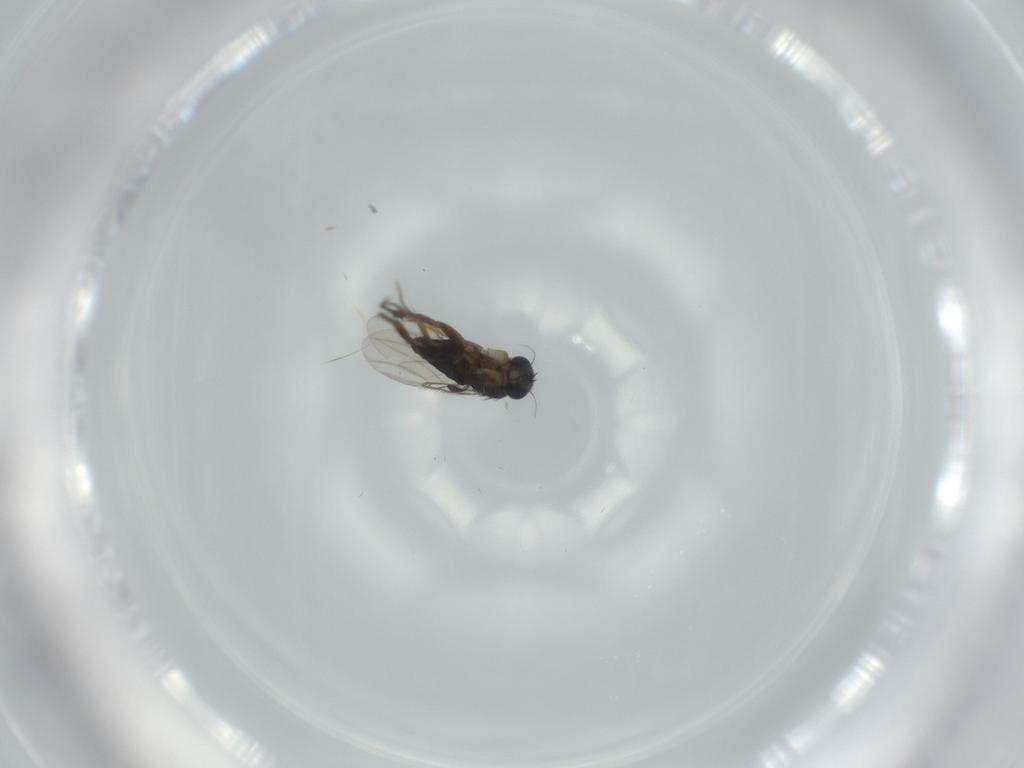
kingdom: Animalia
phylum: Arthropoda
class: Insecta
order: Diptera
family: Phoridae
